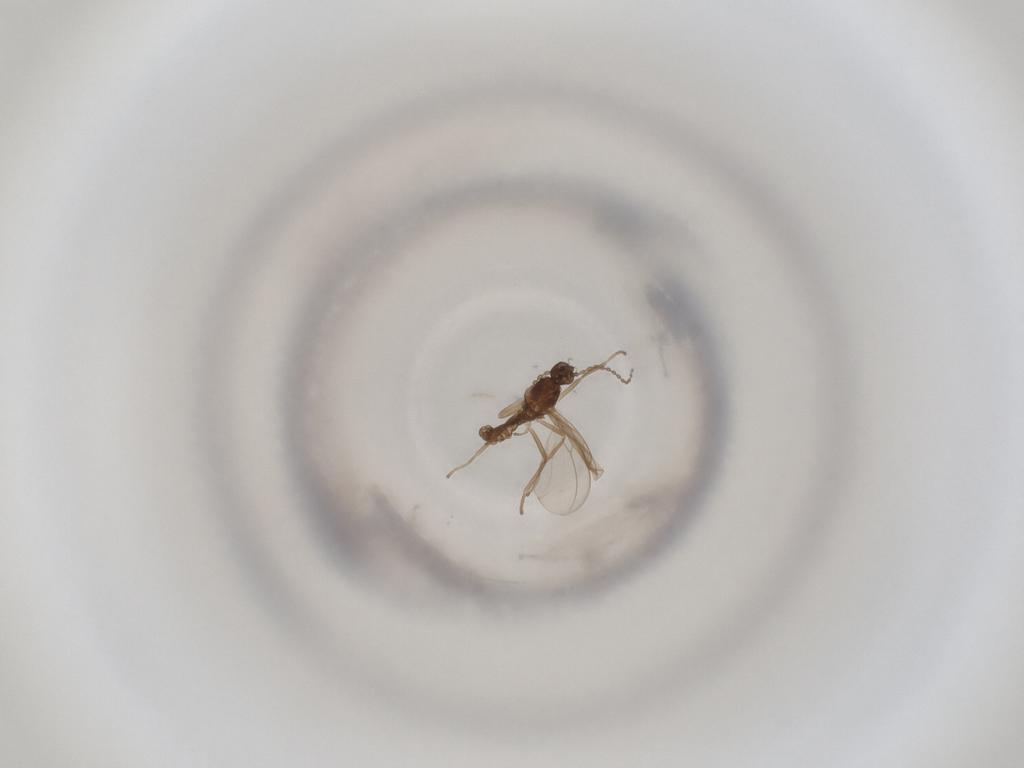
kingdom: Animalia
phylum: Arthropoda
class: Insecta
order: Diptera
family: Cecidomyiidae
